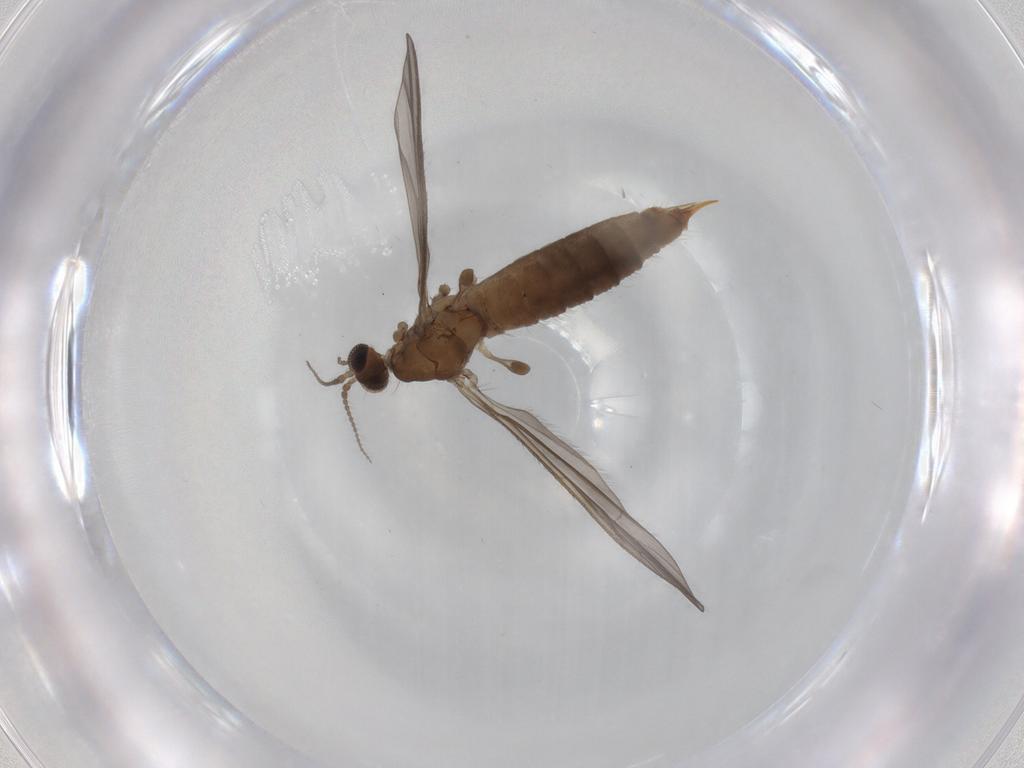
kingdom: Animalia
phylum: Arthropoda
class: Insecta
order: Diptera
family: Limoniidae
